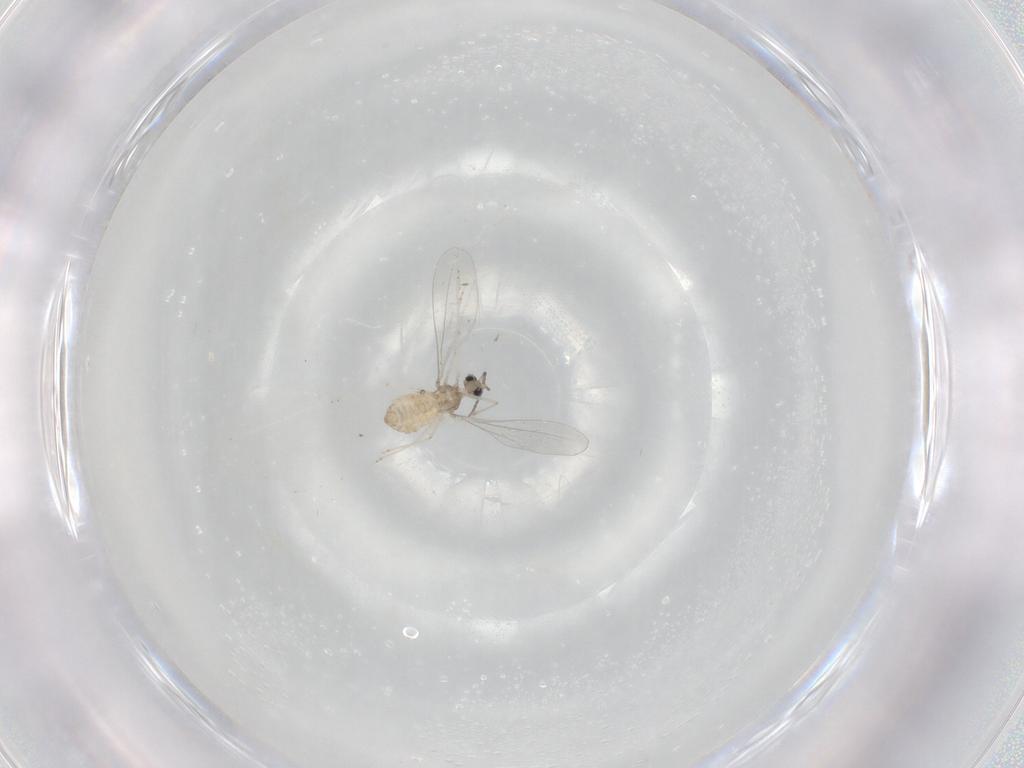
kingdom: Animalia
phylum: Arthropoda
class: Insecta
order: Diptera
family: Cecidomyiidae
